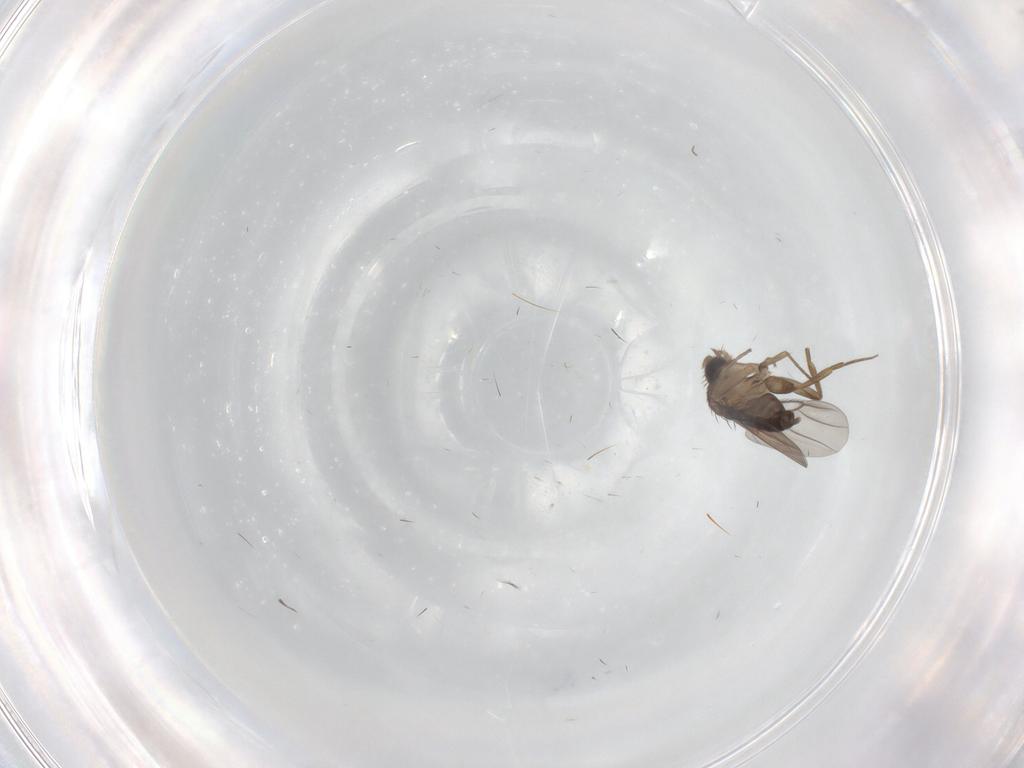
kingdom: Animalia
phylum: Arthropoda
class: Insecta
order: Diptera
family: Phoridae
